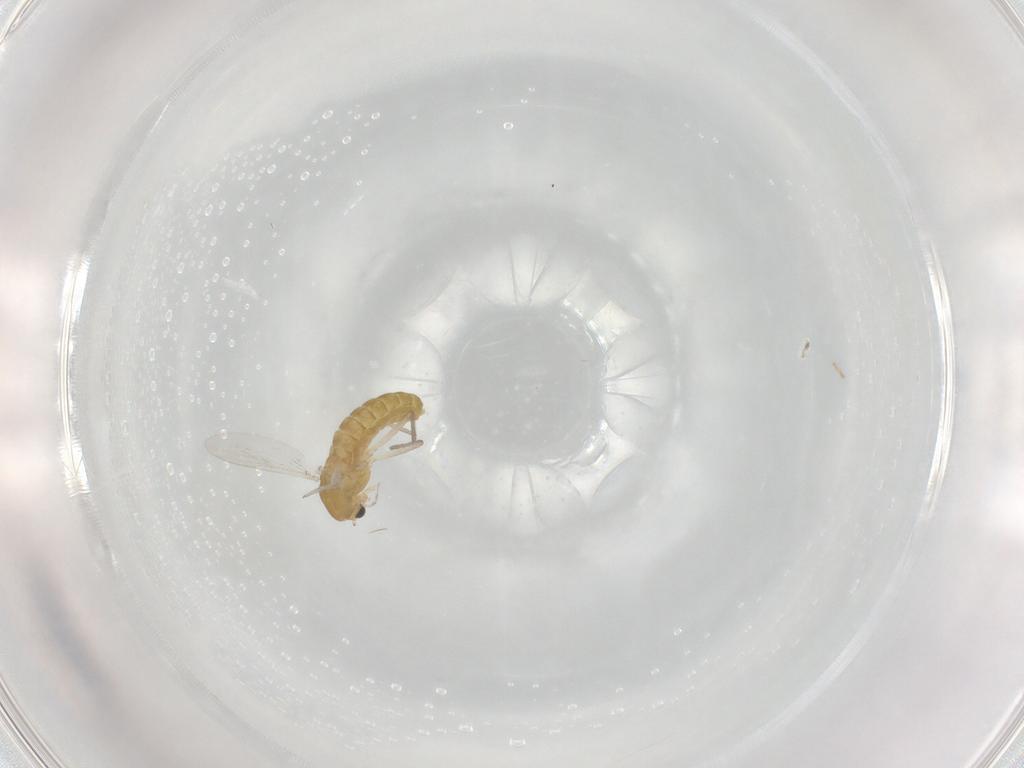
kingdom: Animalia
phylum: Arthropoda
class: Insecta
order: Diptera
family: Chironomidae
